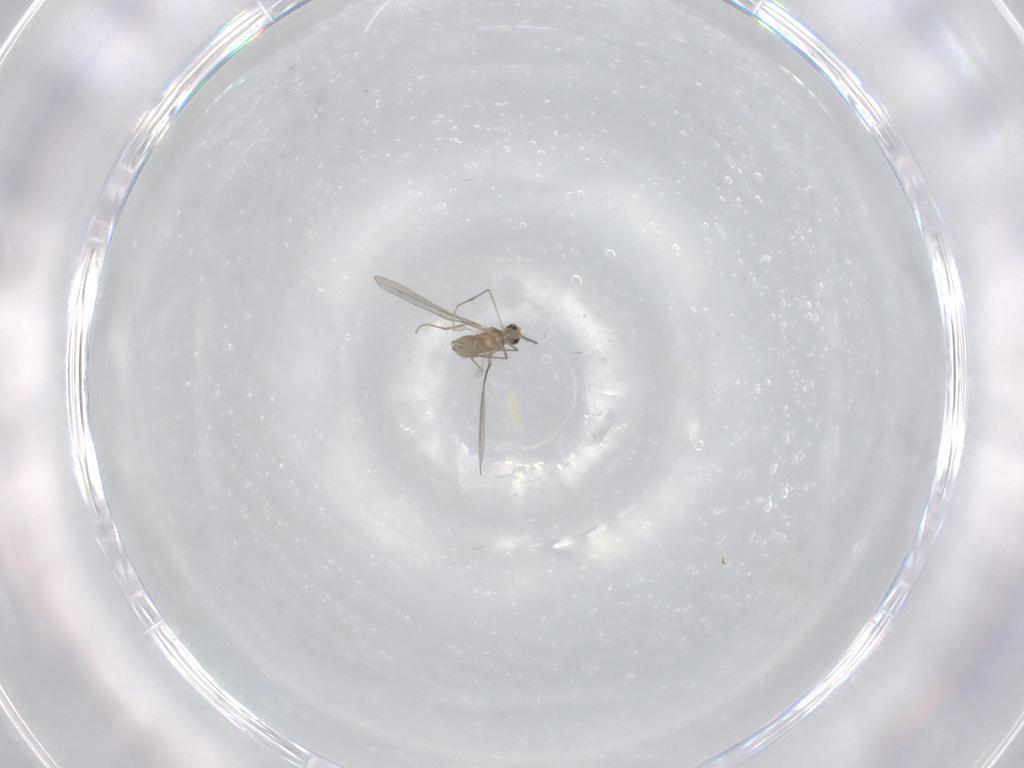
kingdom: Animalia
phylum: Arthropoda
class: Insecta
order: Diptera
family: Cecidomyiidae
